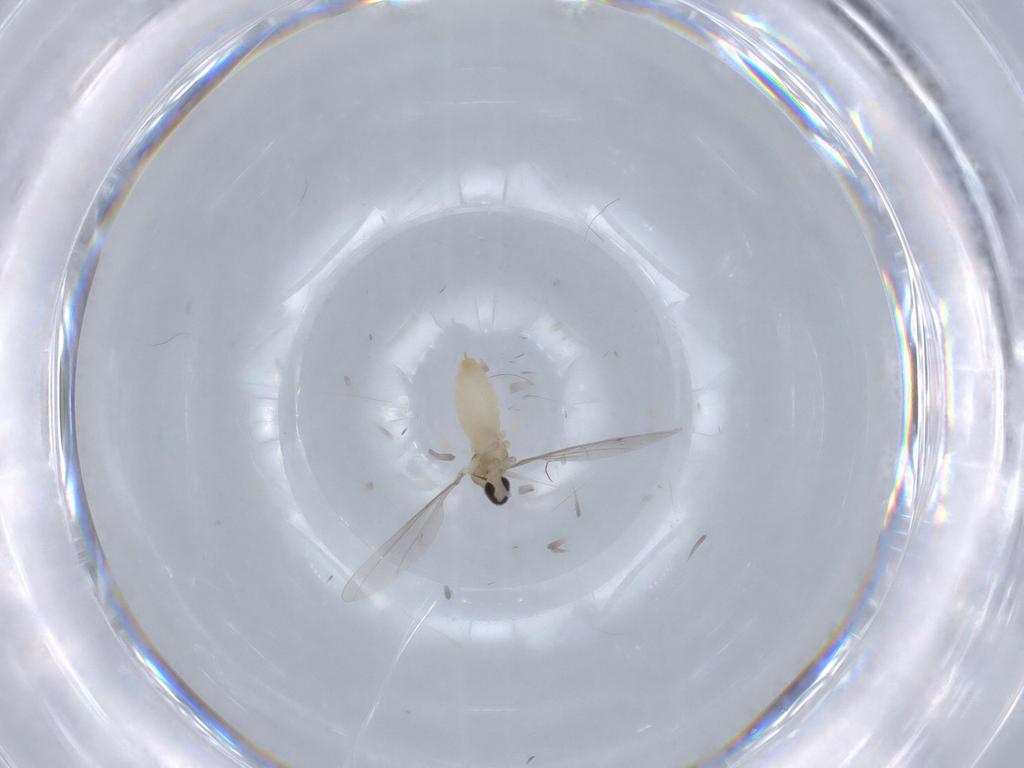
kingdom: Animalia
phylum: Arthropoda
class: Insecta
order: Diptera
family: Cecidomyiidae
